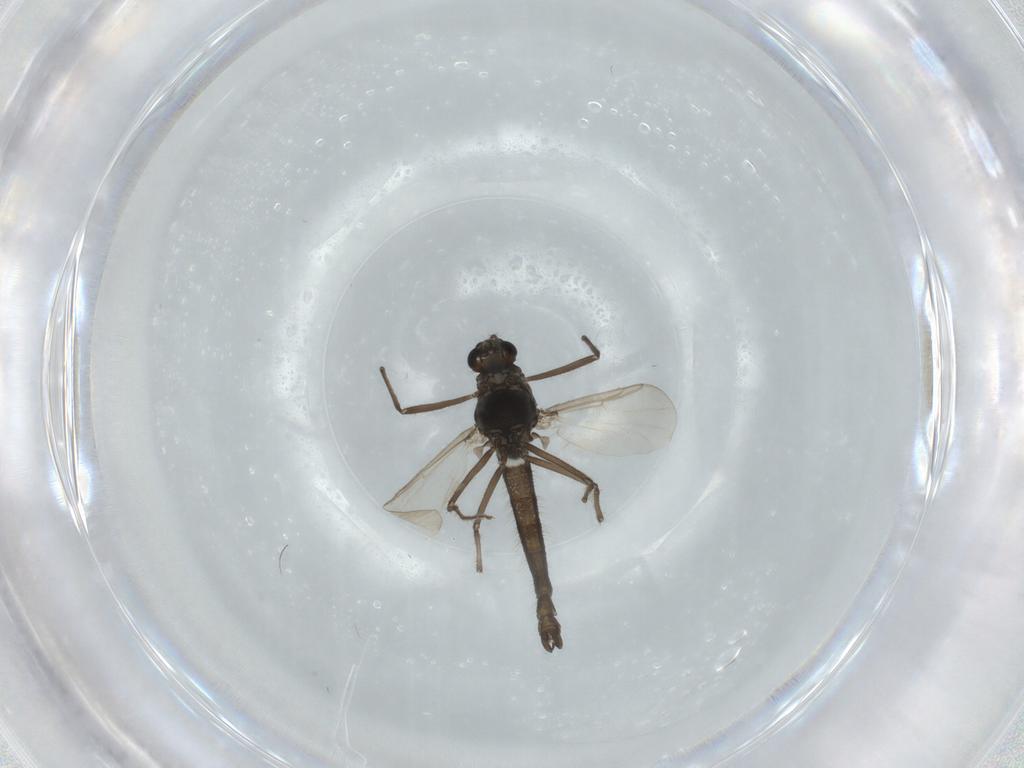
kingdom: Animalia
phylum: Arthropoda
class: Insecta
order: Diptera
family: Chironomidae
